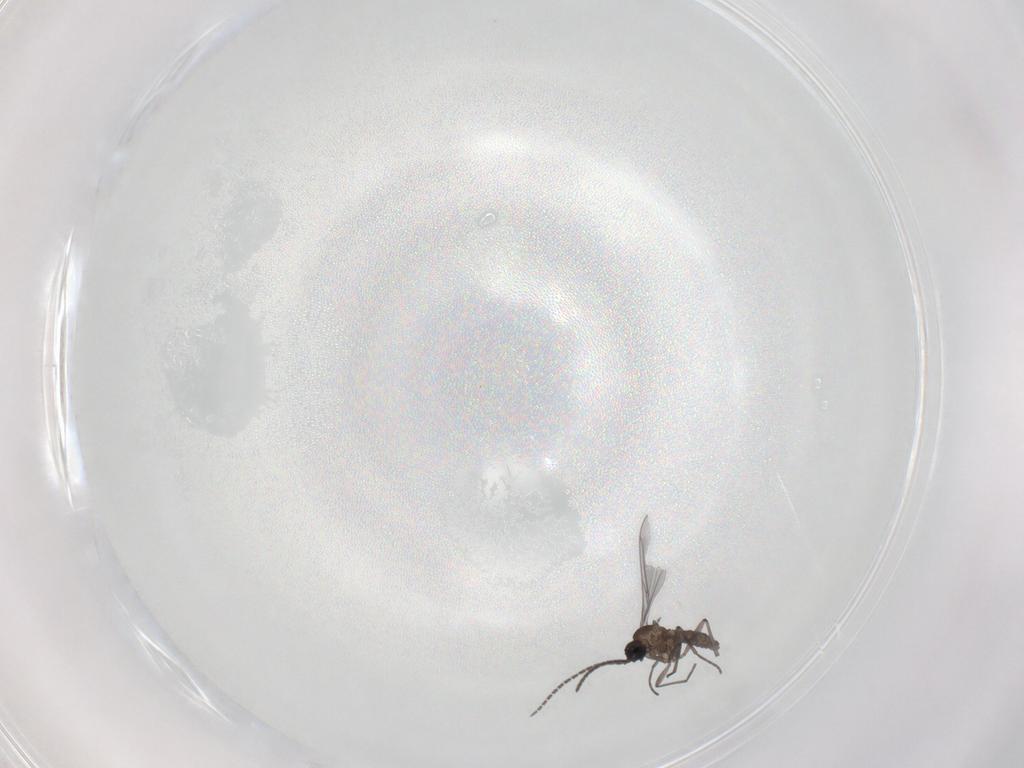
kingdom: Animalia
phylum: Arthropoda
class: Insecta
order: Diptera
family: Sciaridae
